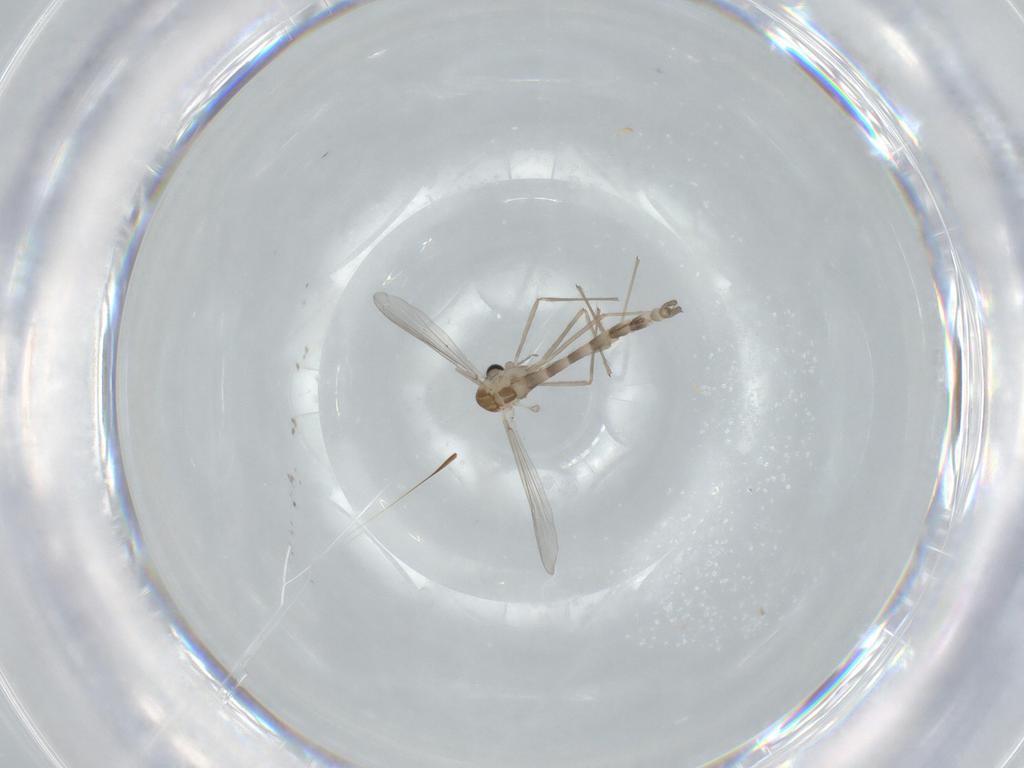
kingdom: Animalia
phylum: Arthropoda
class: Insecta
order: Diptera
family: Chironomidae
